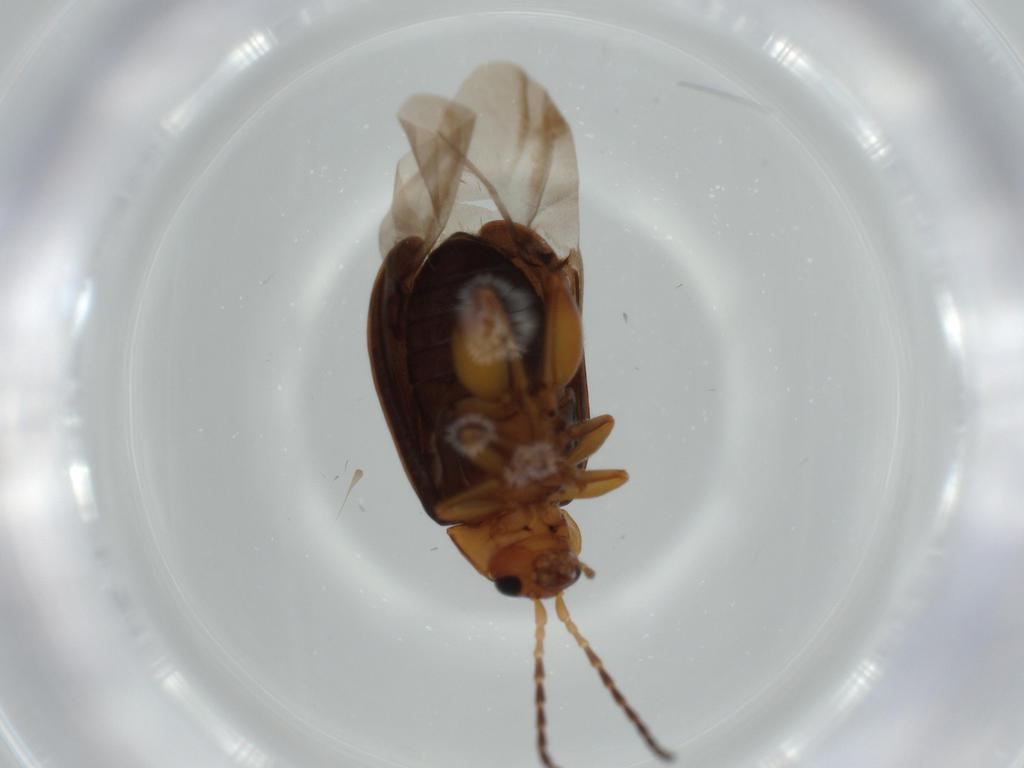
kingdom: Animalia
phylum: Arthropoda
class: Insecta
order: Coleoptera
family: Chrysomelidae
